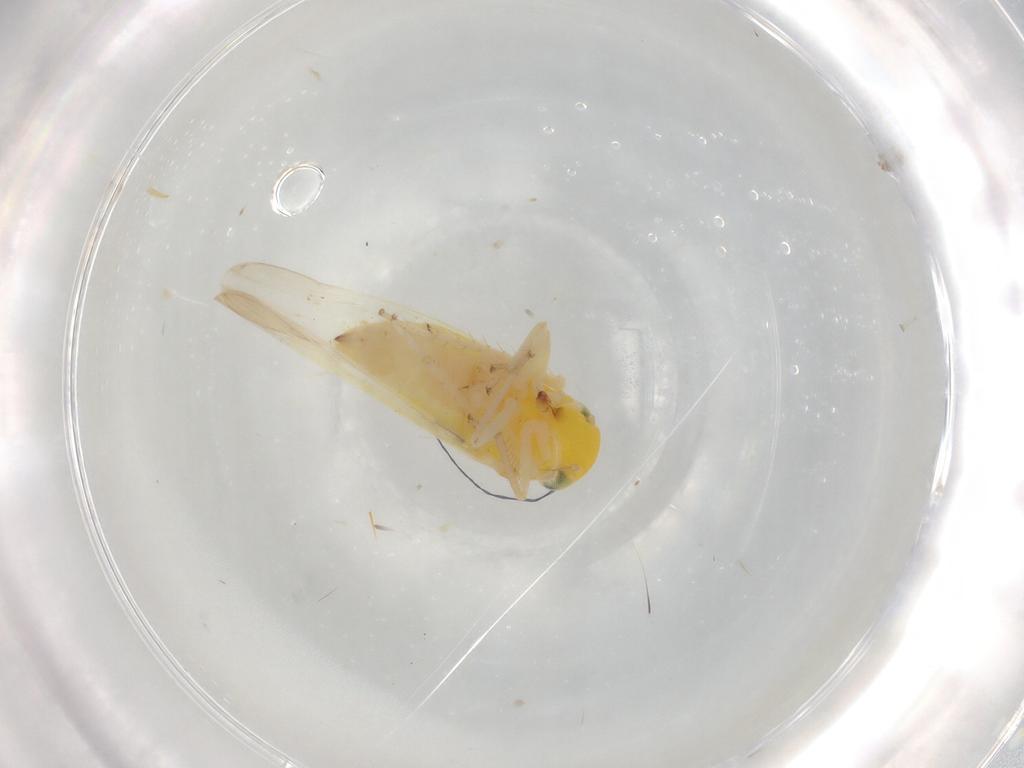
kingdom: Animalia
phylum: Arthropoda
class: Insecta
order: Hemiptera
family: Cicadellidae
